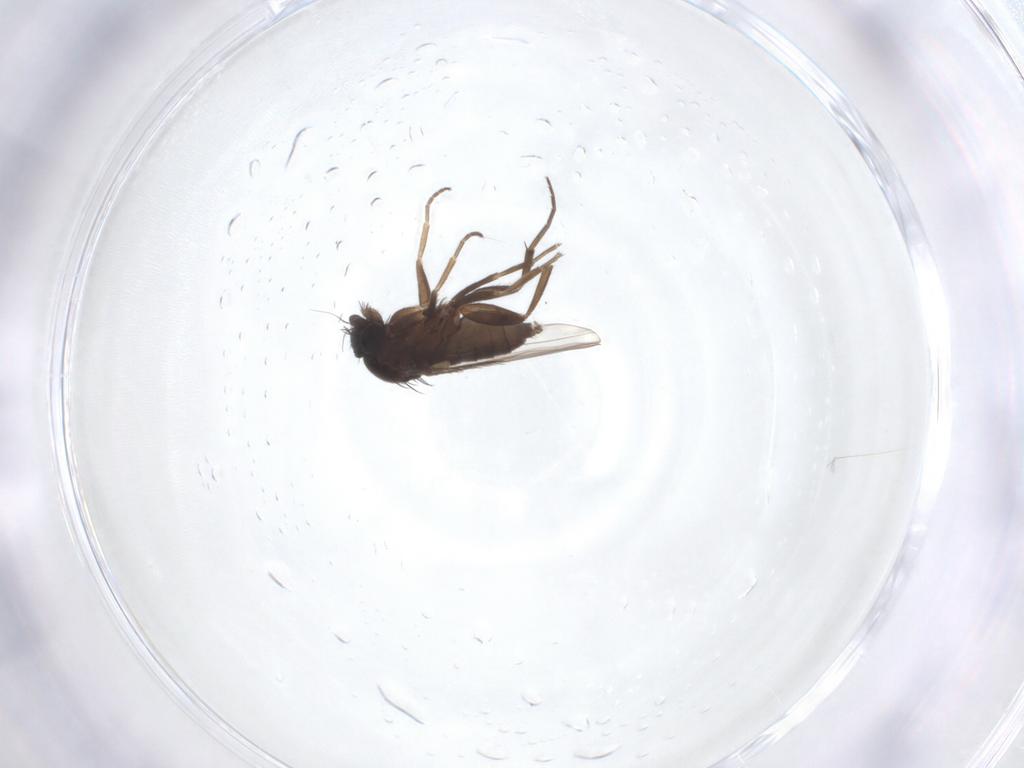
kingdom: Animalia
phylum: Arthropoda
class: Insecta
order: Diptera
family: Phoridae
